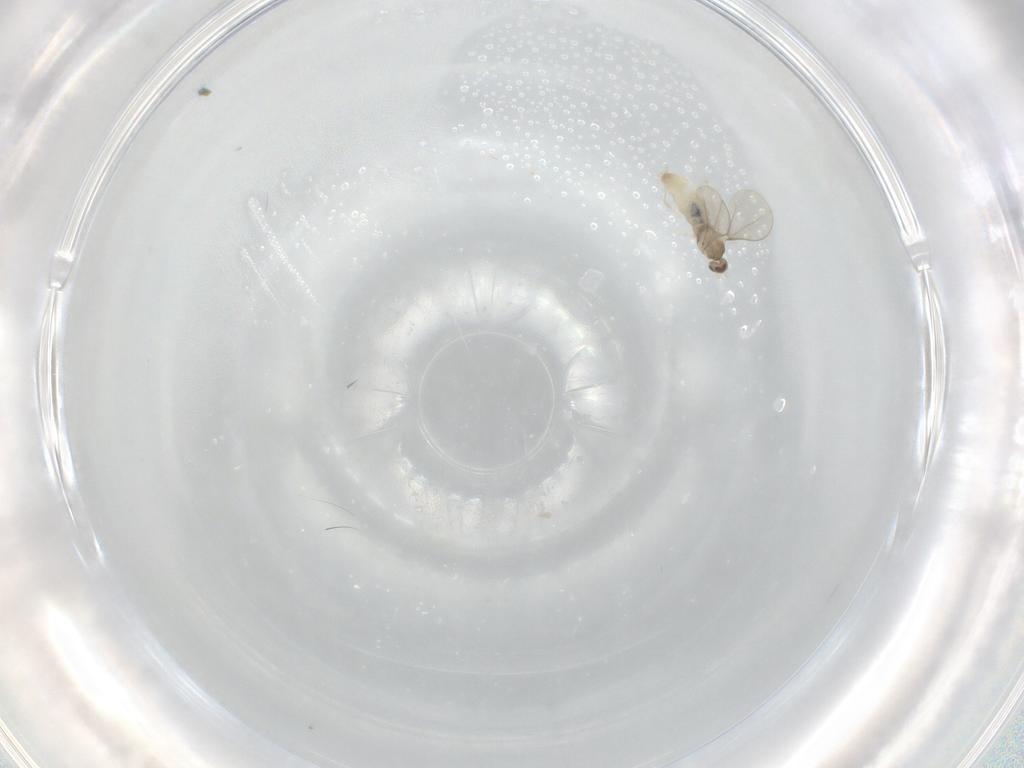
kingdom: Animalia
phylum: Arthropoda
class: Insecta
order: Diptera
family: Cecidomyiidae
